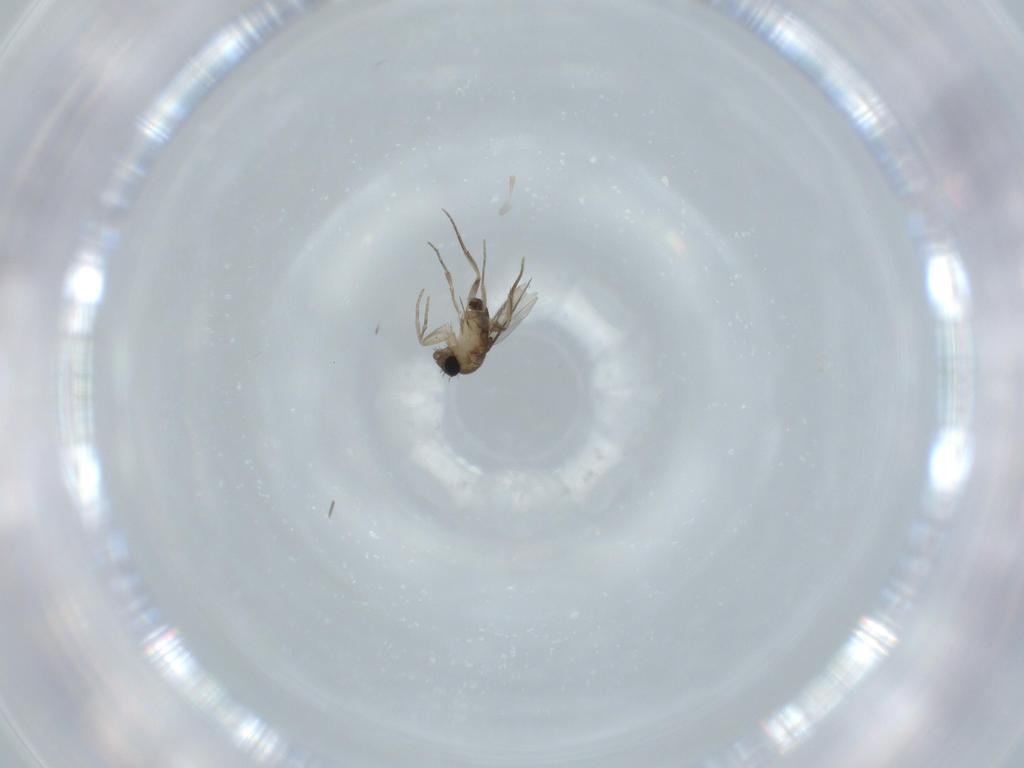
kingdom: Animalia
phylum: Arthropoda
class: Insecta
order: Diptera
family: Phoridae
